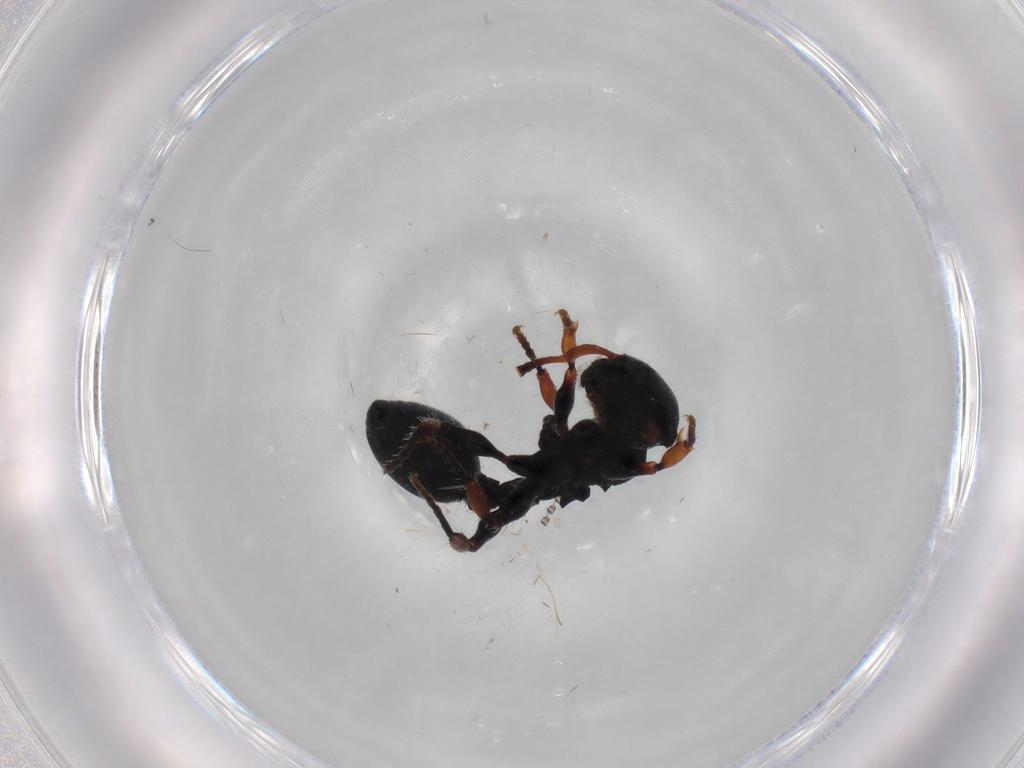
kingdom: Animalia
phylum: Arthropoda
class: Insecta
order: Hymenoptera
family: Formicidae
